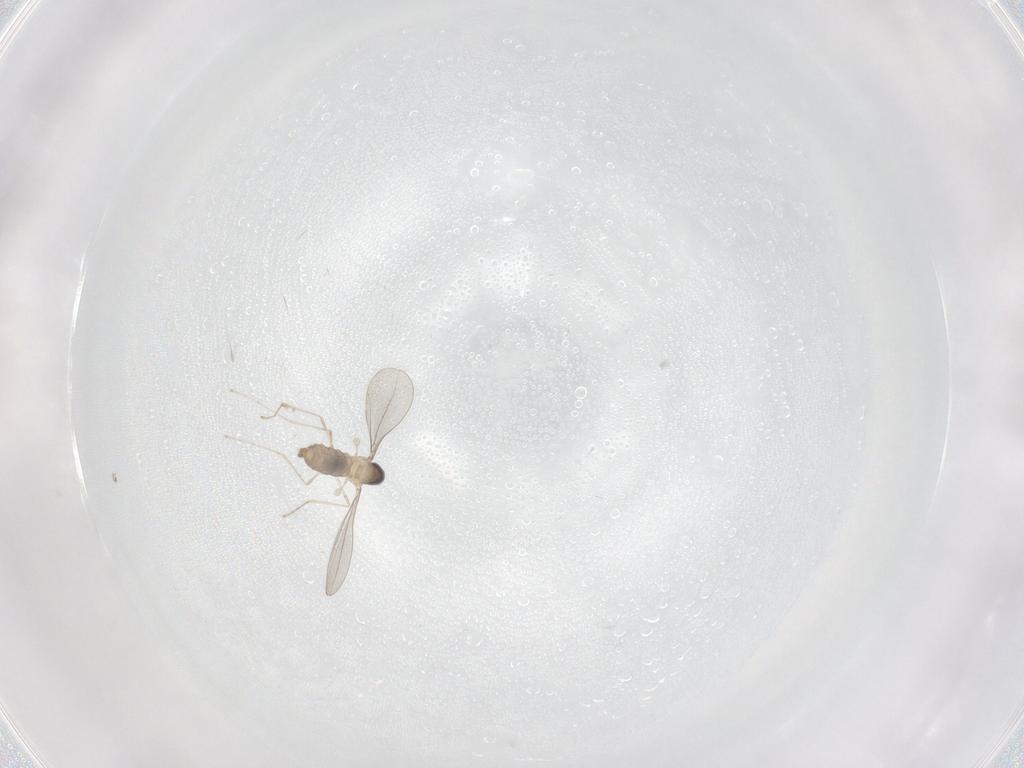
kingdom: Animalia
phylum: Arthropoda
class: Insecta
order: Diptera
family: Cecidomyiidae
